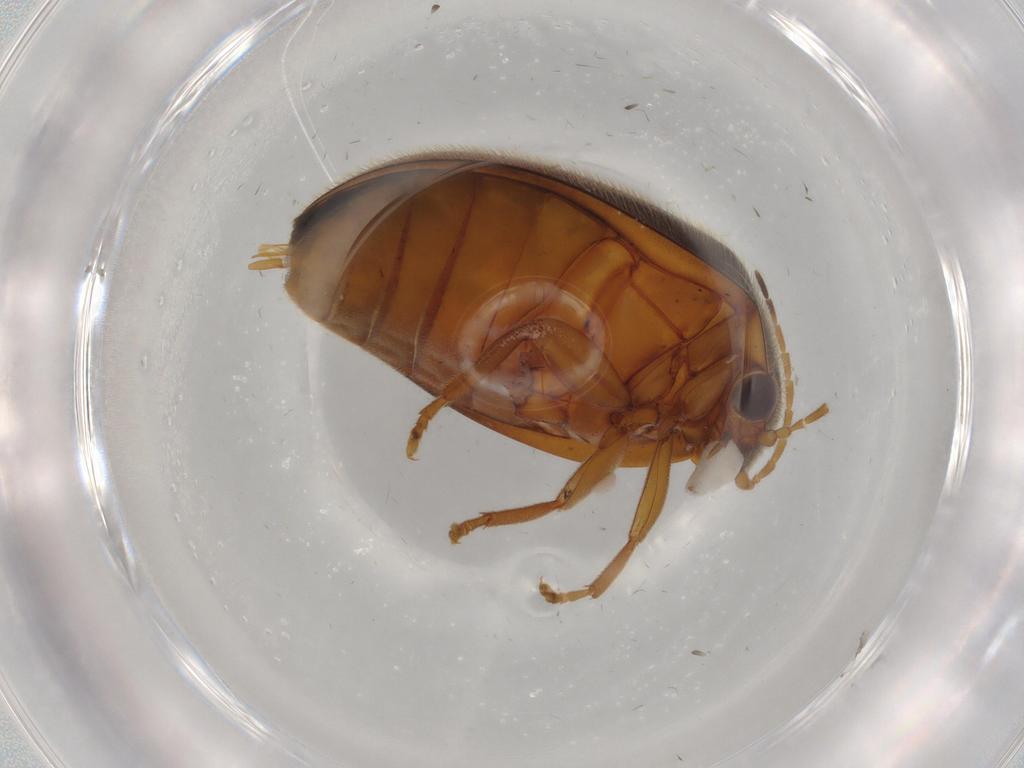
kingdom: Animalia
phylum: Arthropoda
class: Insecta
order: Coleoptera
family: Scirtidae
